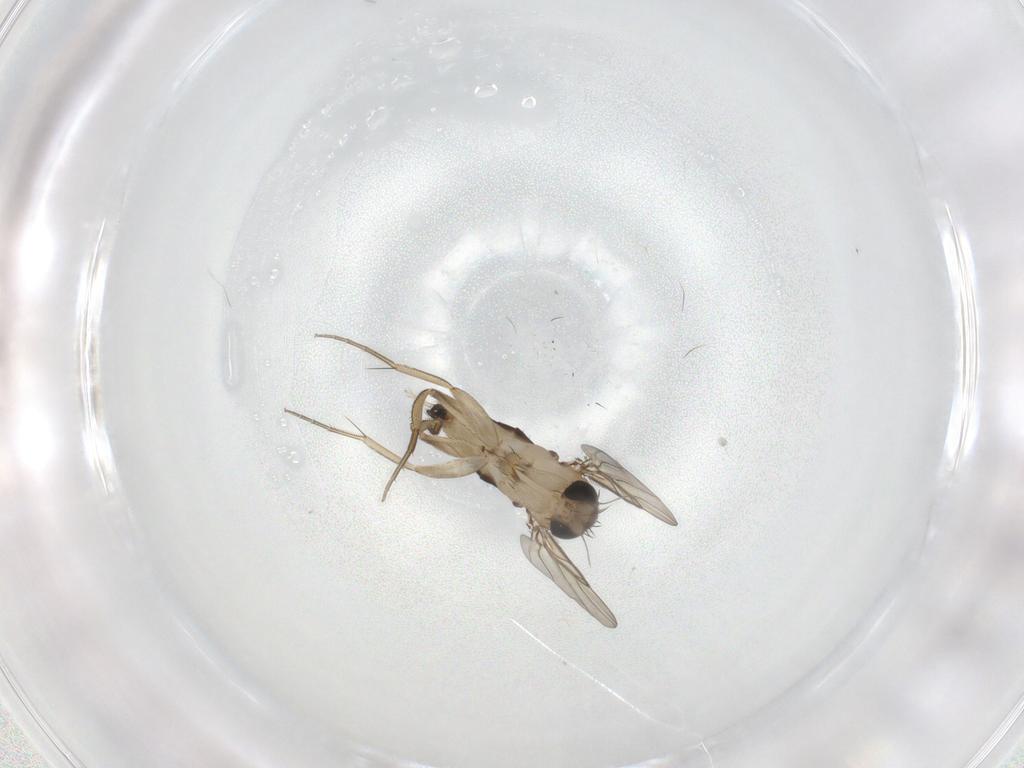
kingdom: Animalia
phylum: Arthropoda
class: Insecta
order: Diptera
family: Phoridae
